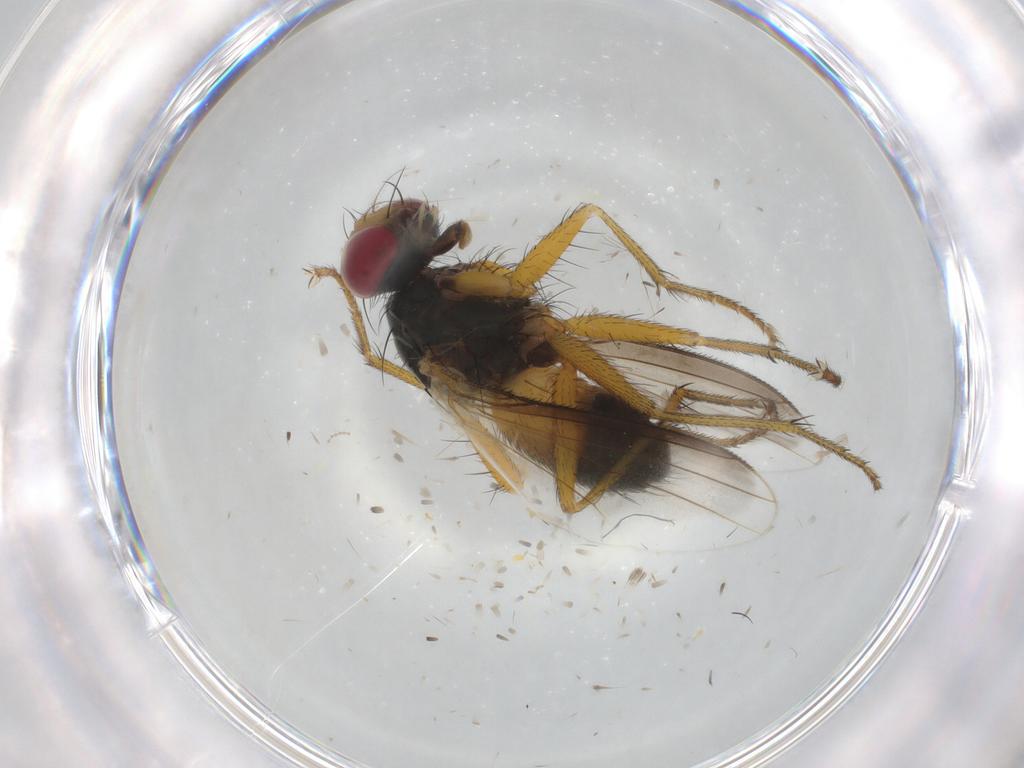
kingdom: Animalia
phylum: Arthropoda
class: Insecta
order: Diptera
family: Muscidae
